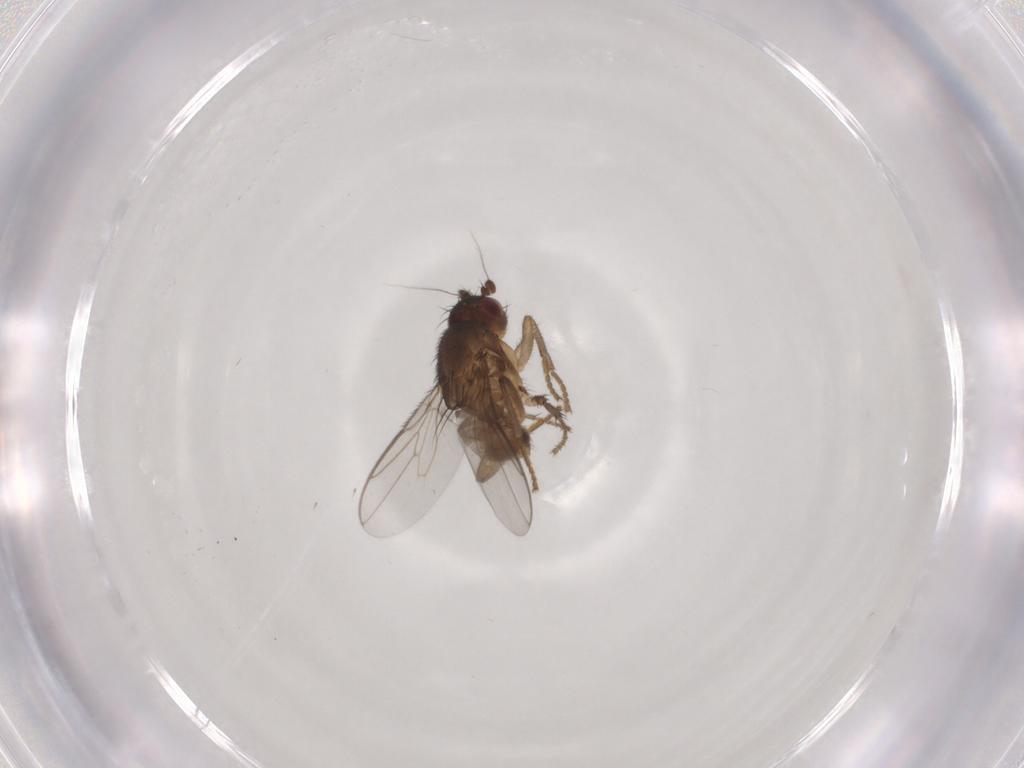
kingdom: Animalia
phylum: Arthropoda
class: Insecta
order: Diptera
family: Sphaeroceridae
